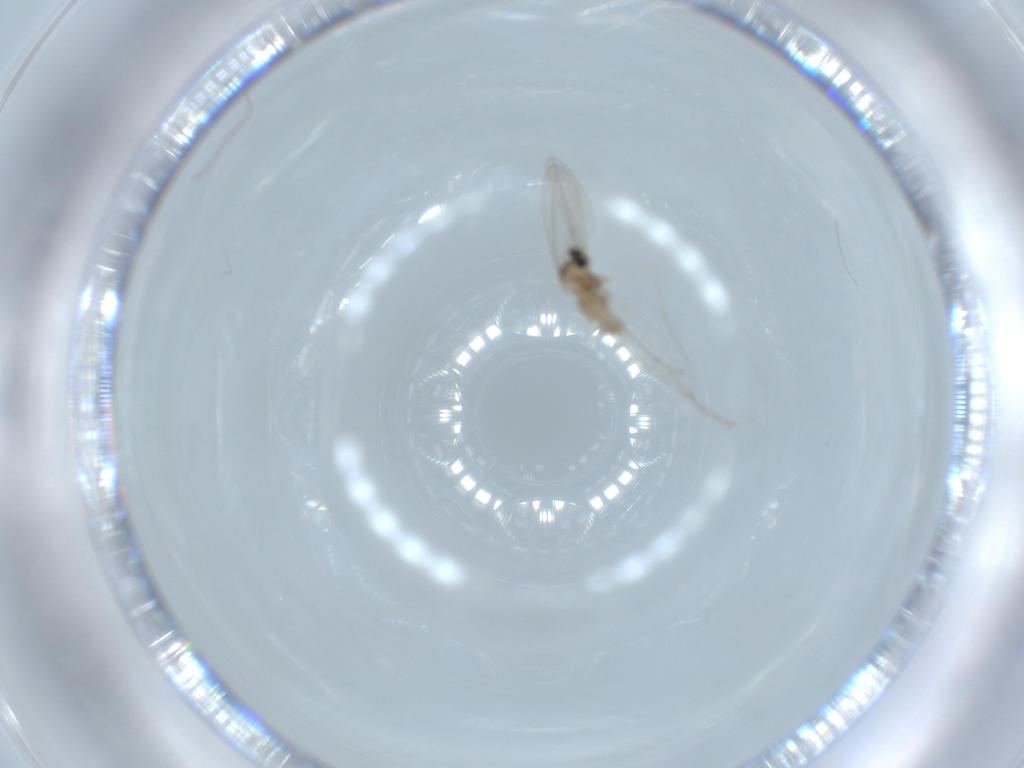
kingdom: Animalia
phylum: Arthropoda
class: Insecta
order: Diptera
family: Cecidomyiidae
